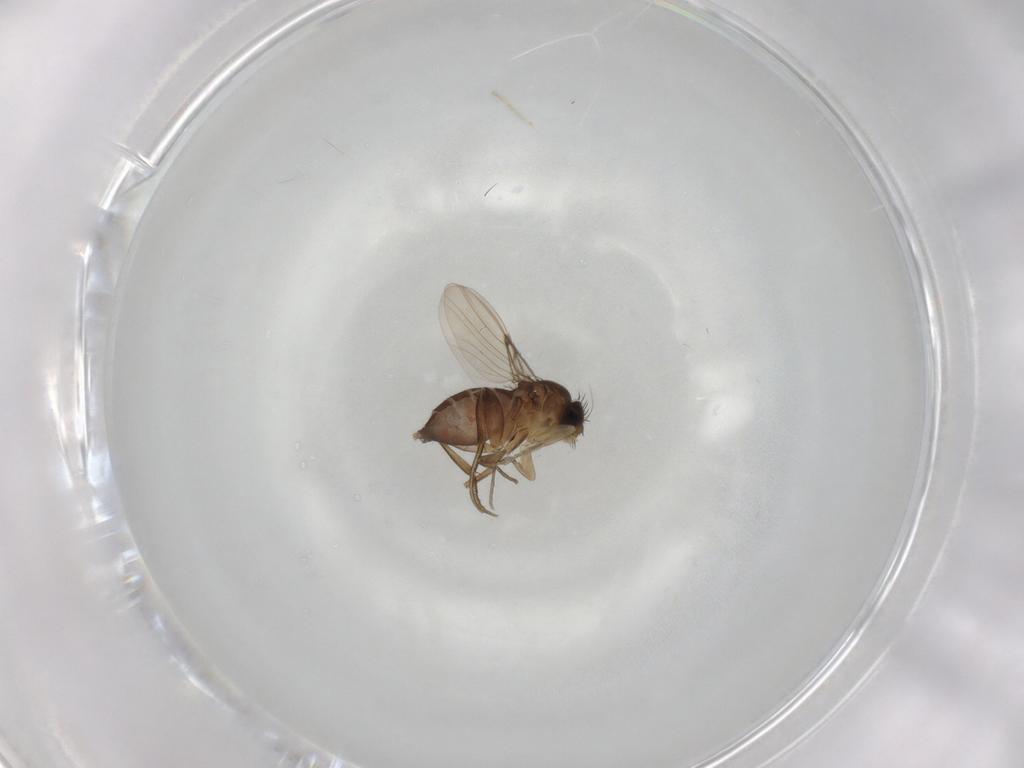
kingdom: Animalia
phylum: Arthropoda
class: Insecta
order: Diptera
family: Phoridae
